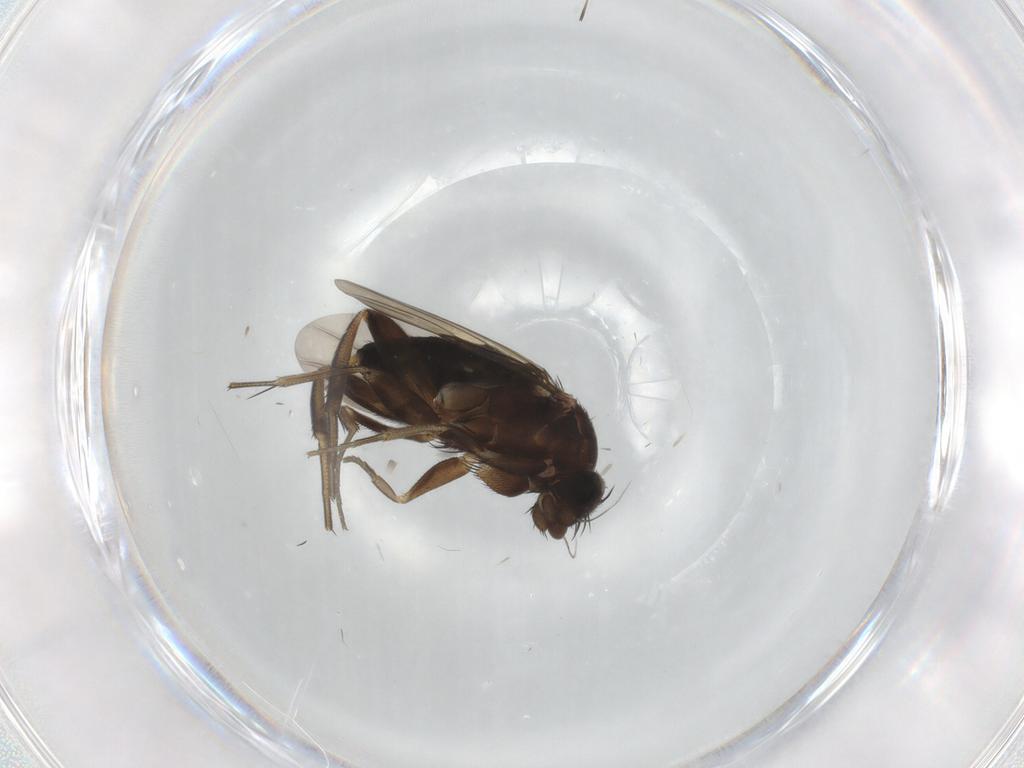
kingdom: Animalia
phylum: Arthropoda
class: Insecta
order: Diptera
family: Phoridae
